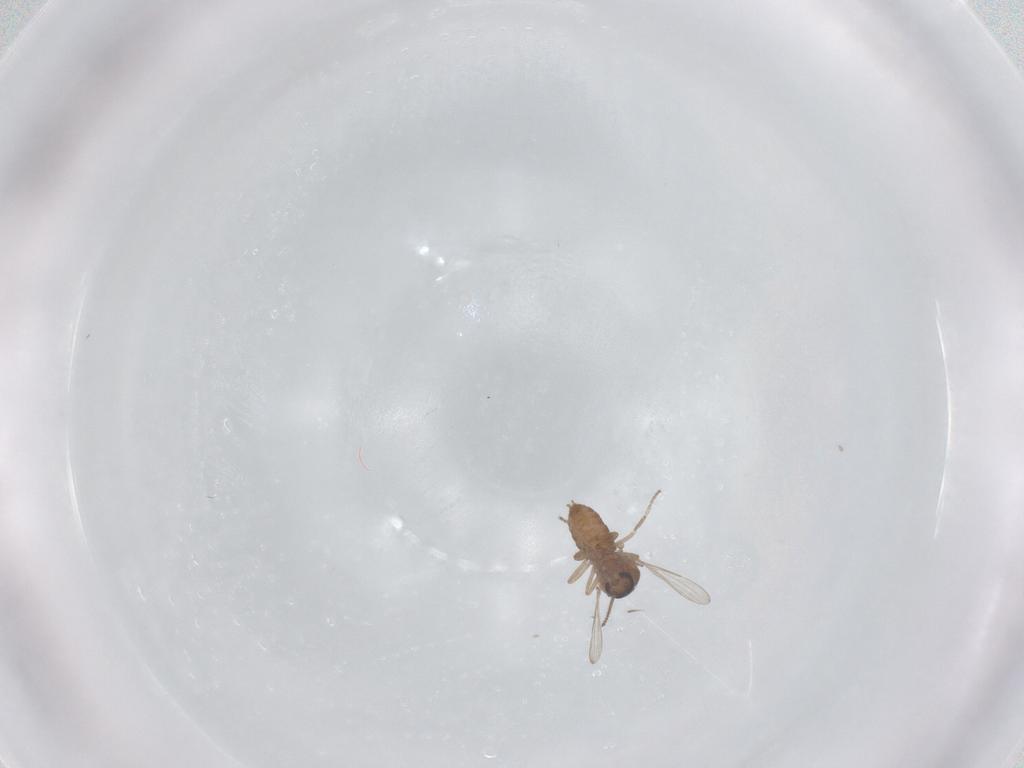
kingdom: Animalia
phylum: Arthropoda
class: Insecta
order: Diptera
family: Ceratopogonidae
